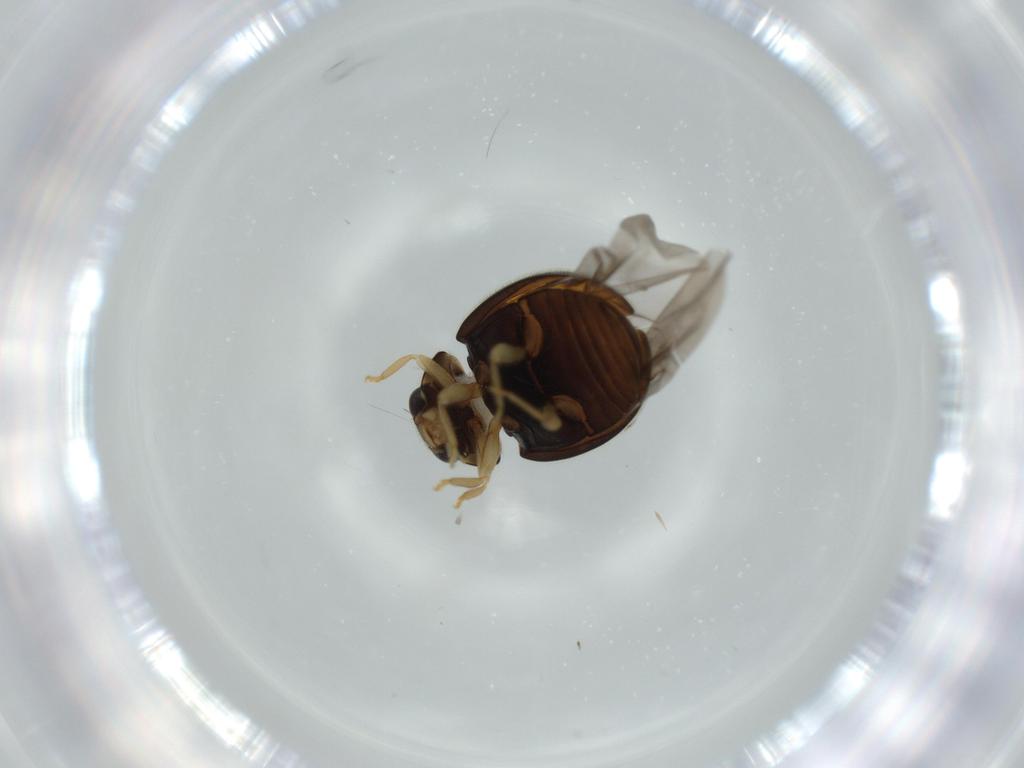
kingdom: Animalia
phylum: Arthropoda
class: Insecta
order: Coleoptera
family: Coccinellidae
